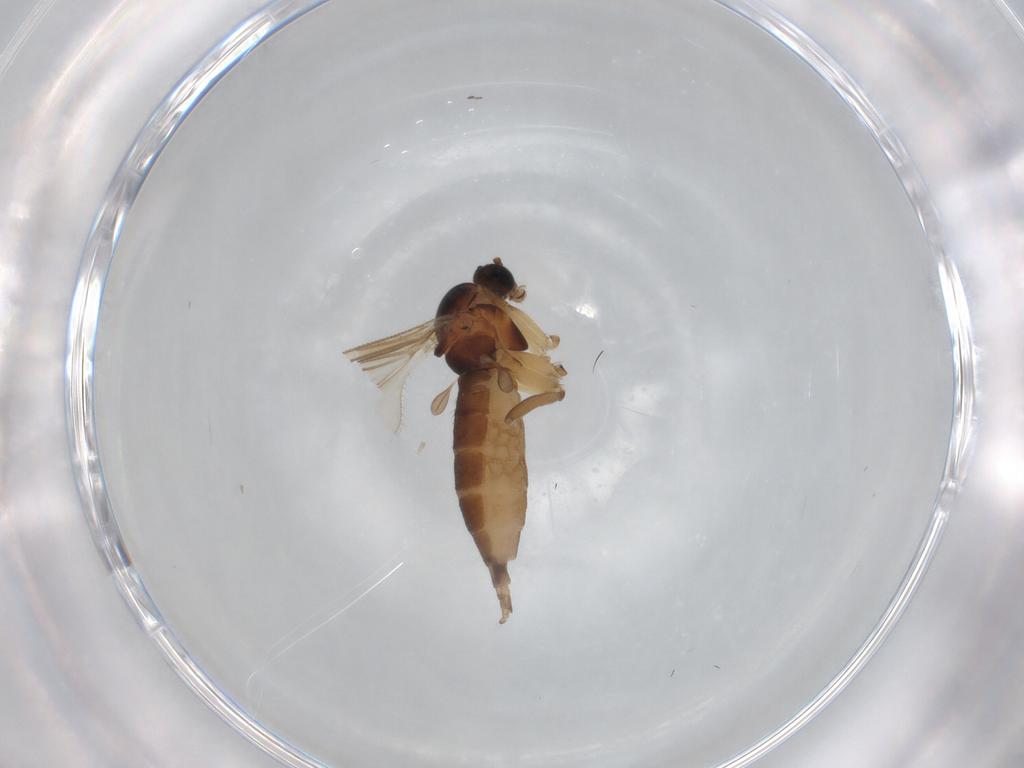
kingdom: Animalia
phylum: Arthropoda
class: Insecta
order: Diptera
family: Sciaridae
